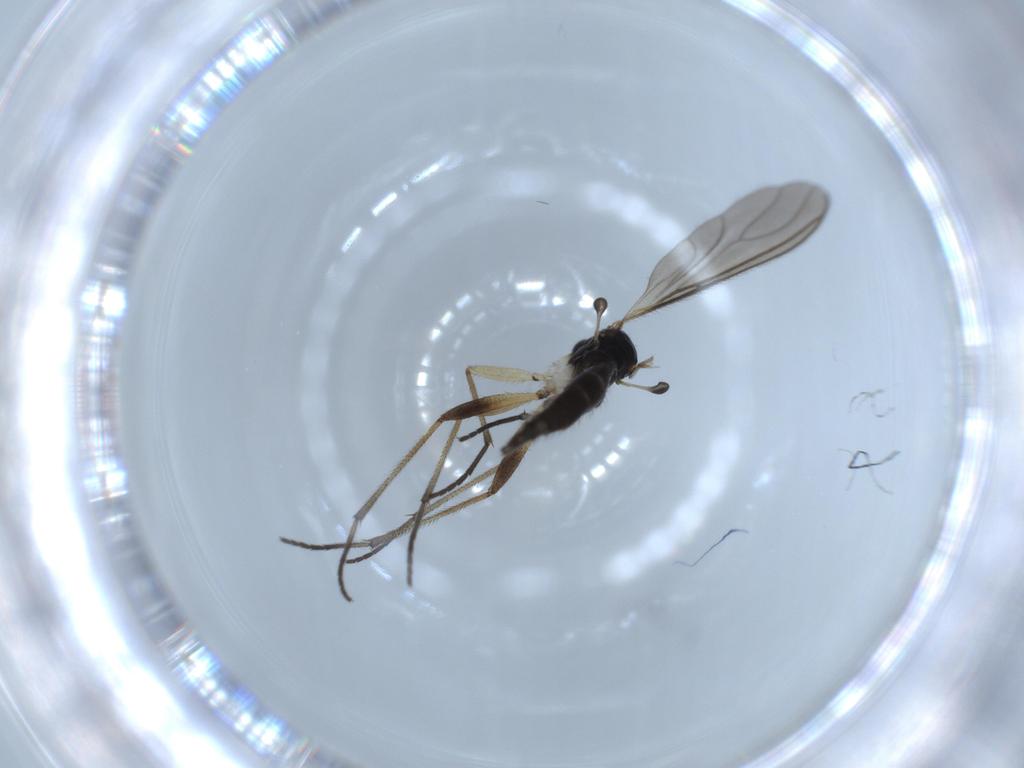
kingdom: Animalia
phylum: Arthropoda
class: Insecta
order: Diptera
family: Sciaridae
